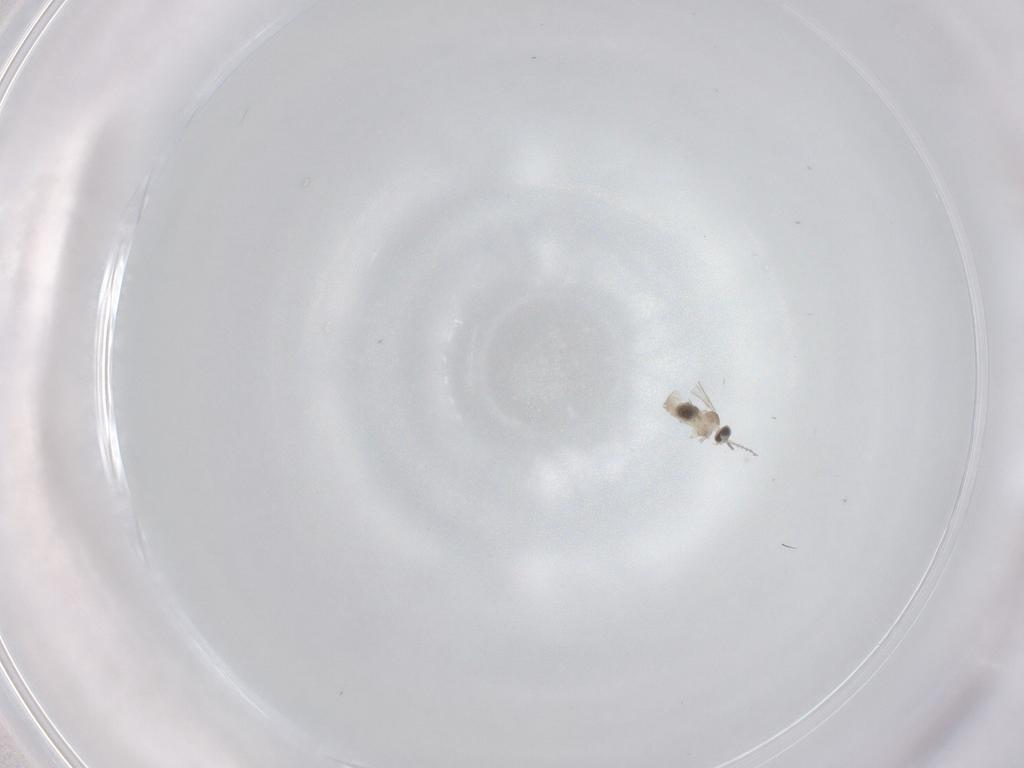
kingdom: Animalia
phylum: Arthropoda
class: Insecta
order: Diptera
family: Cecidomyiidae
